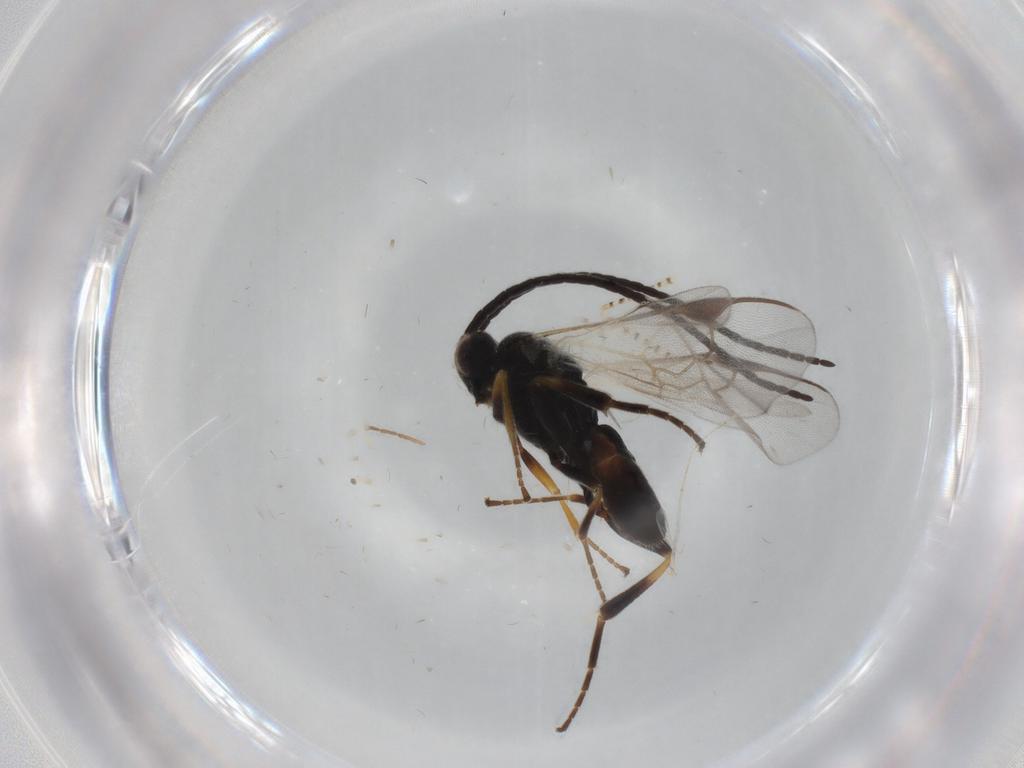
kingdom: Animalia
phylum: Arthropoda
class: Insecta
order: Hymenoptera
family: Braconidae
